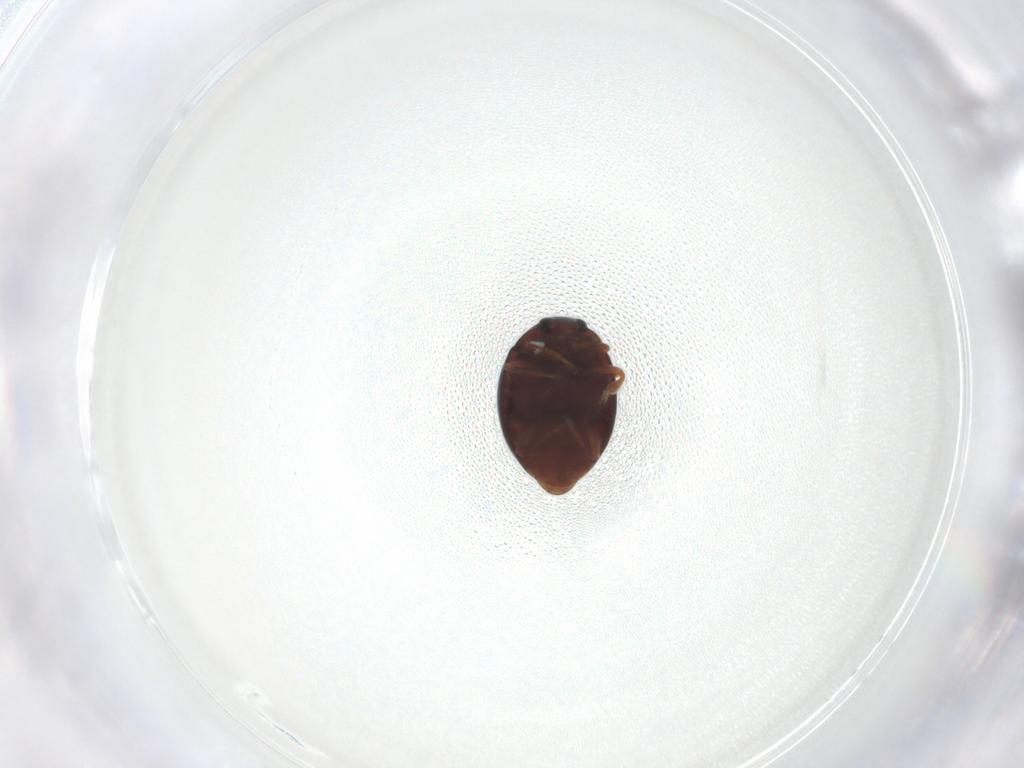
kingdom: Animalia
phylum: Arthropoda
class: Insecta
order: Coleoptera
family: Coccinellidae
